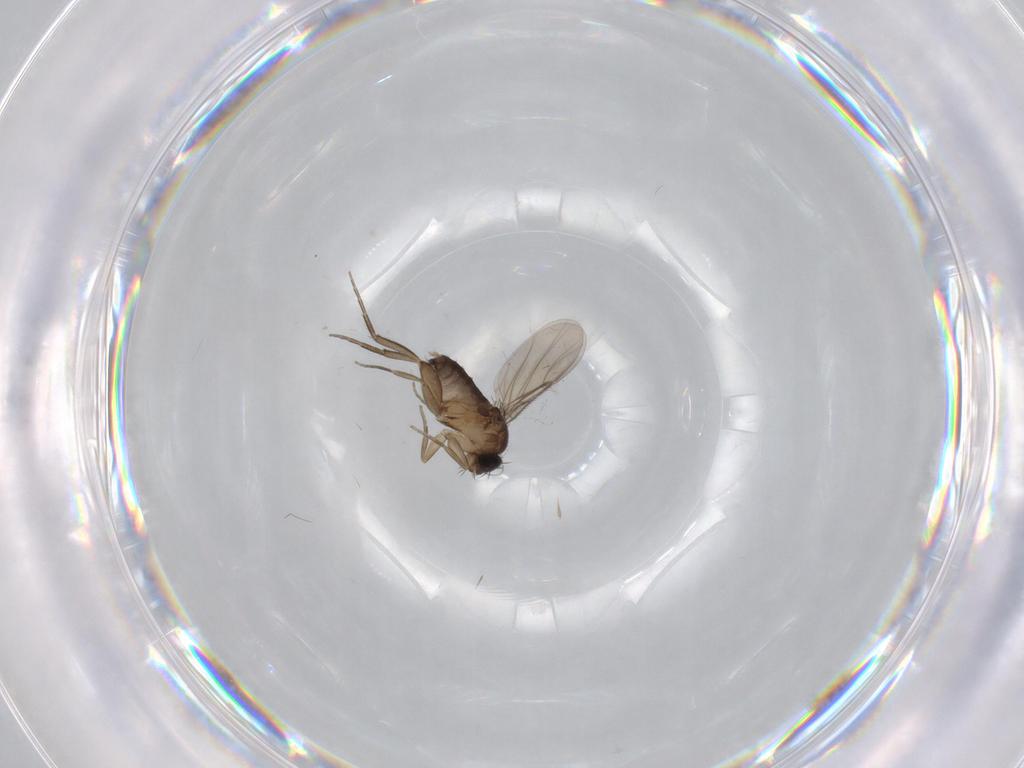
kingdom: Animalia
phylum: Arthropoda
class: Insecta
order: Diptera
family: Phoridae
